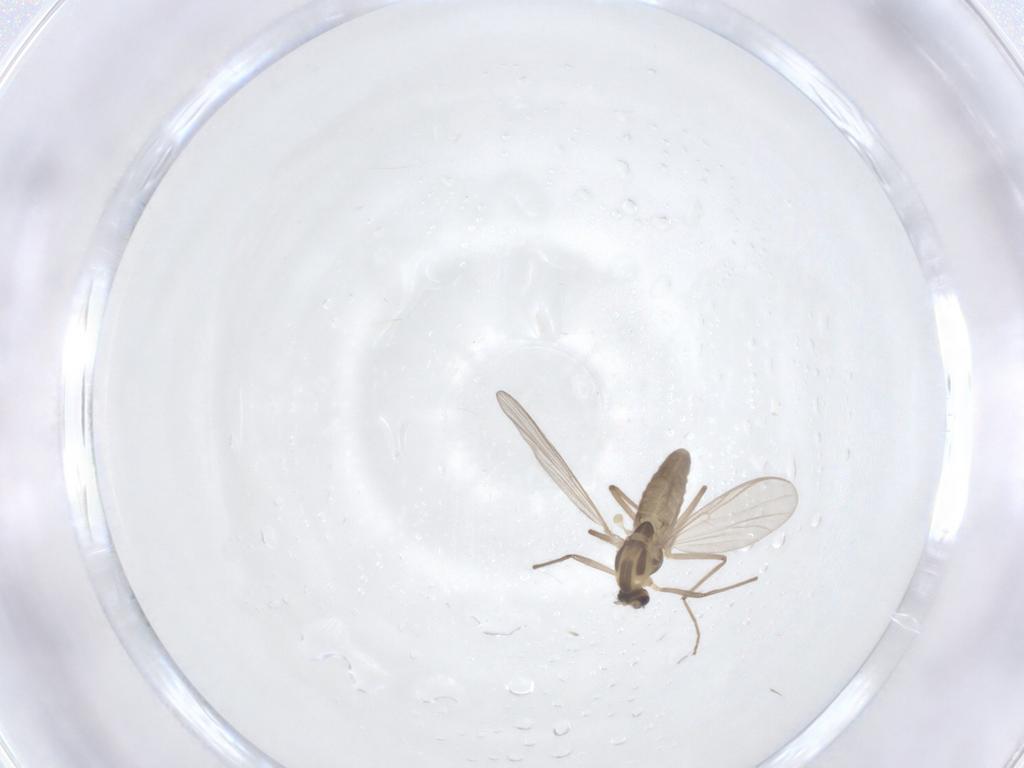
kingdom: Animalia
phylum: Arthropoda
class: Insecta
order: Diptera
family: Chironomidae
